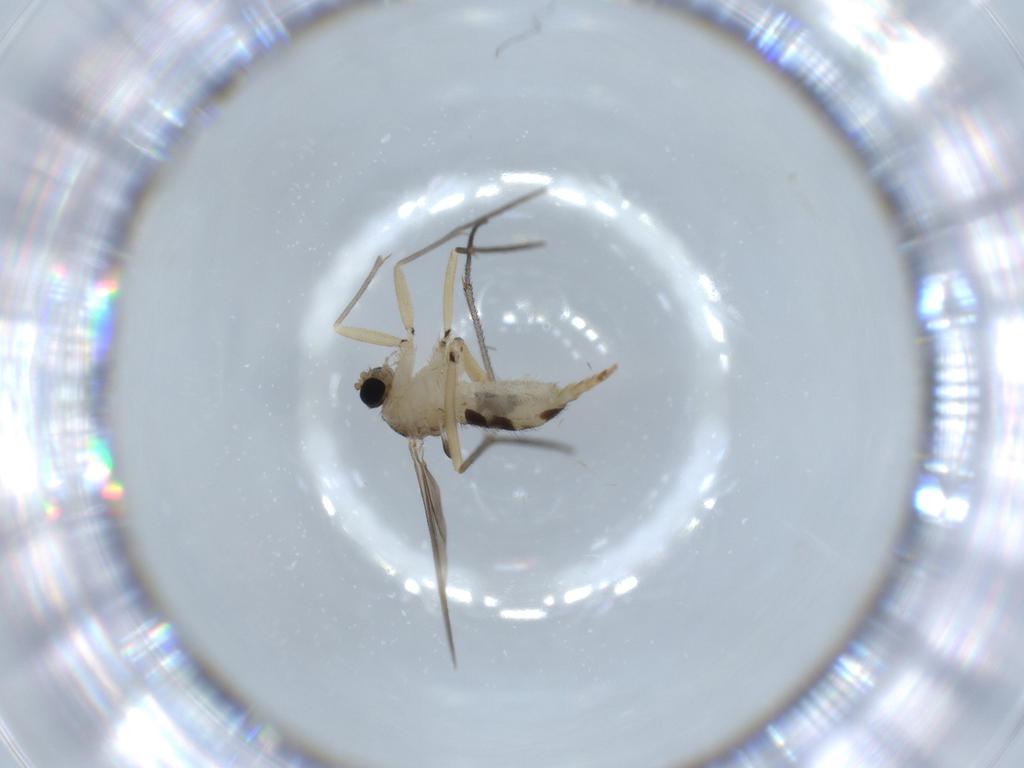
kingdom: Animalia
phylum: Arthropoda
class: Insecta
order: Diptera
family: Sciaridae
